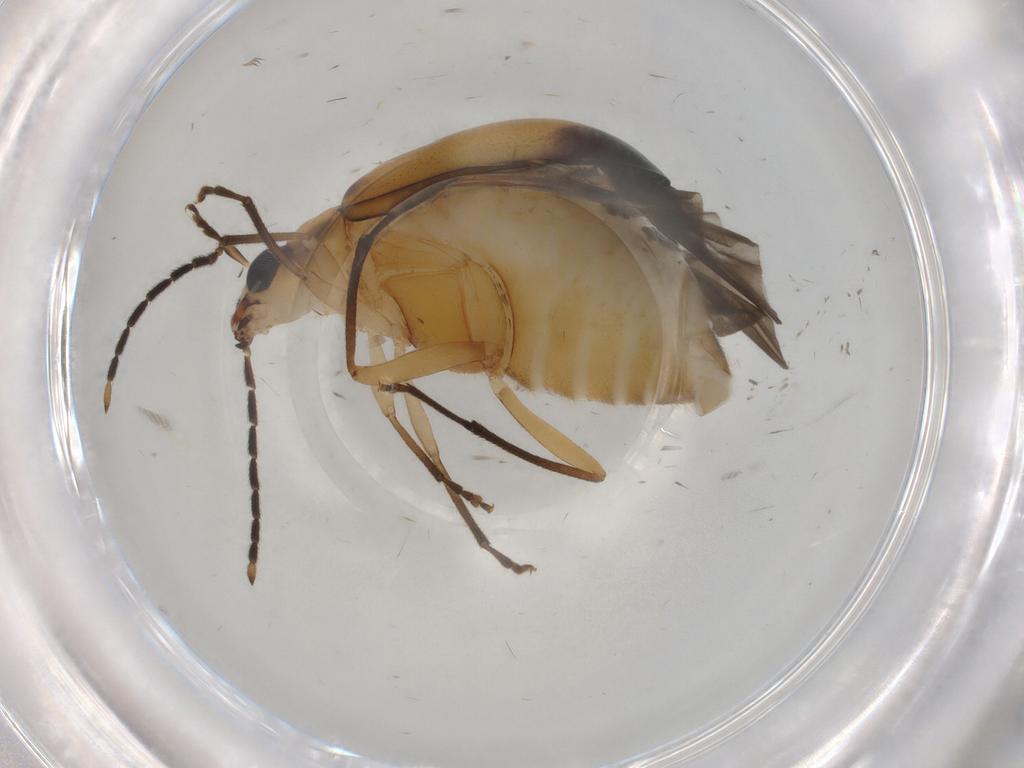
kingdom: Animalia
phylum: Arthropoda
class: Insecta
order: Coleoptera
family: Chrysomelidae
